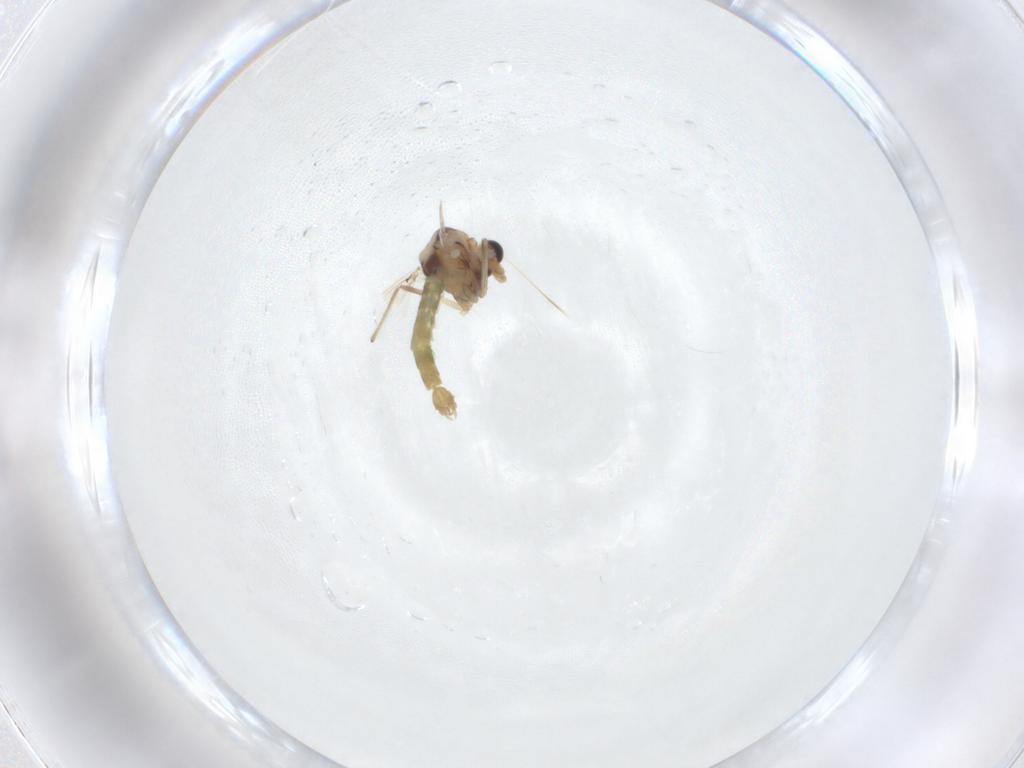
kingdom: Animalia
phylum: Arthropoda
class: Insecta
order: Diptera
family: Chironomidae
